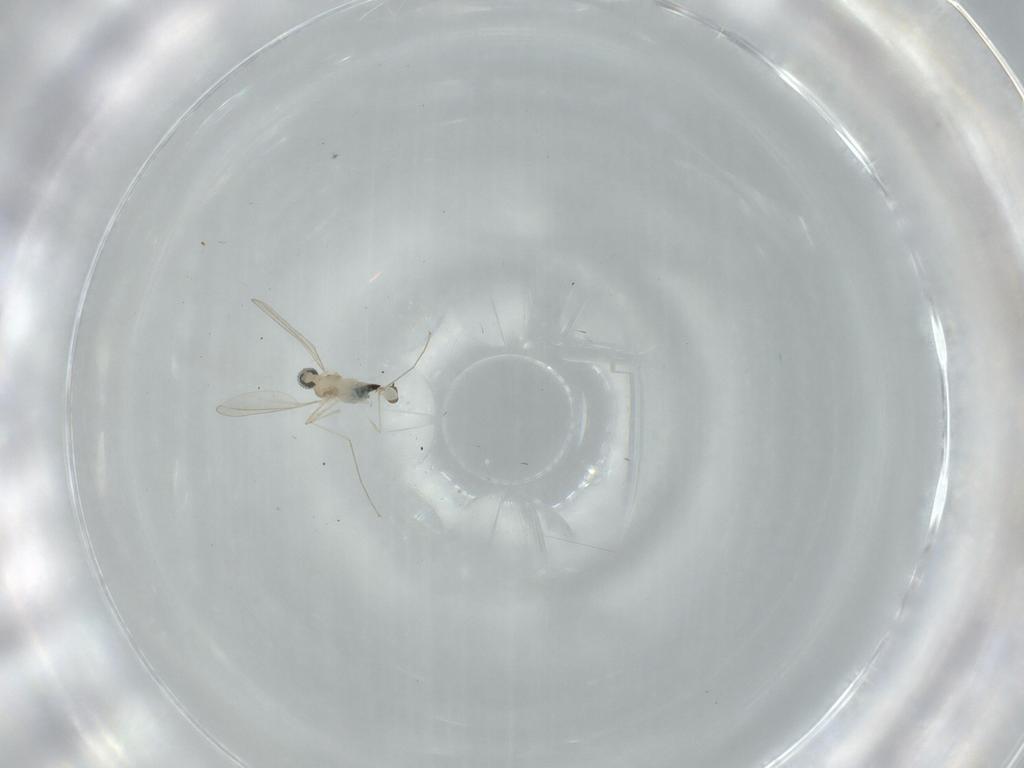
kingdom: Animalia
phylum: Arthropoda
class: Insecta
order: Diptera
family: Cecidomyiidae
